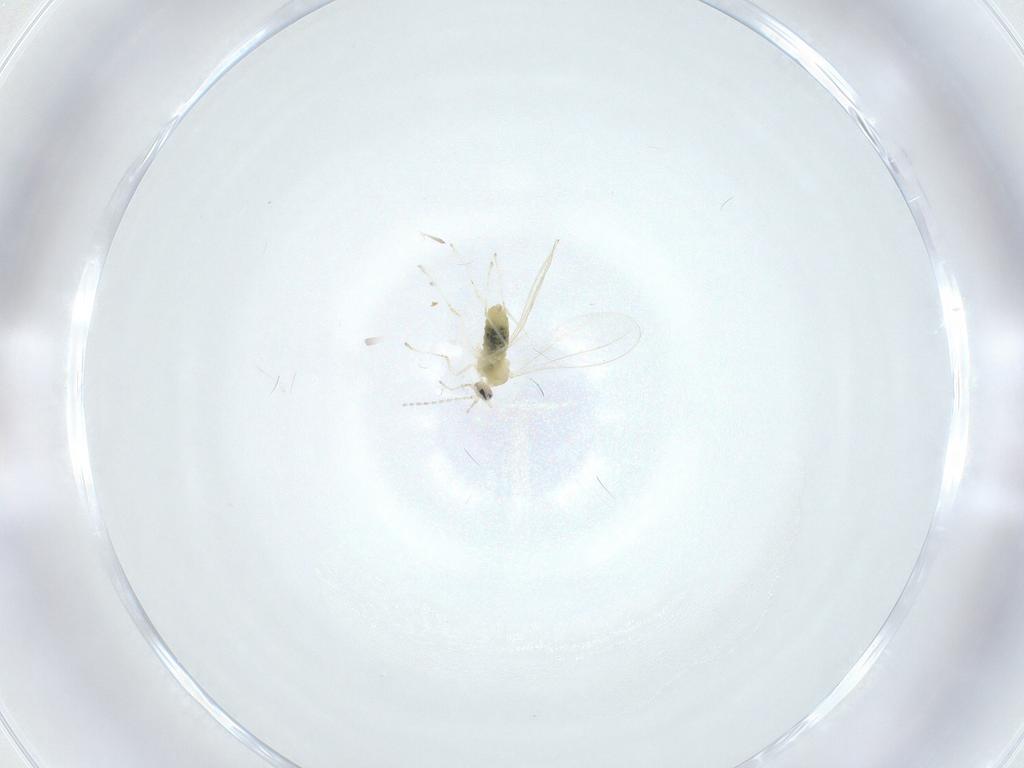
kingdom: Animalia
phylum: Arthropoda
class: Insecta
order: Diptera
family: Cecidomyiidae
